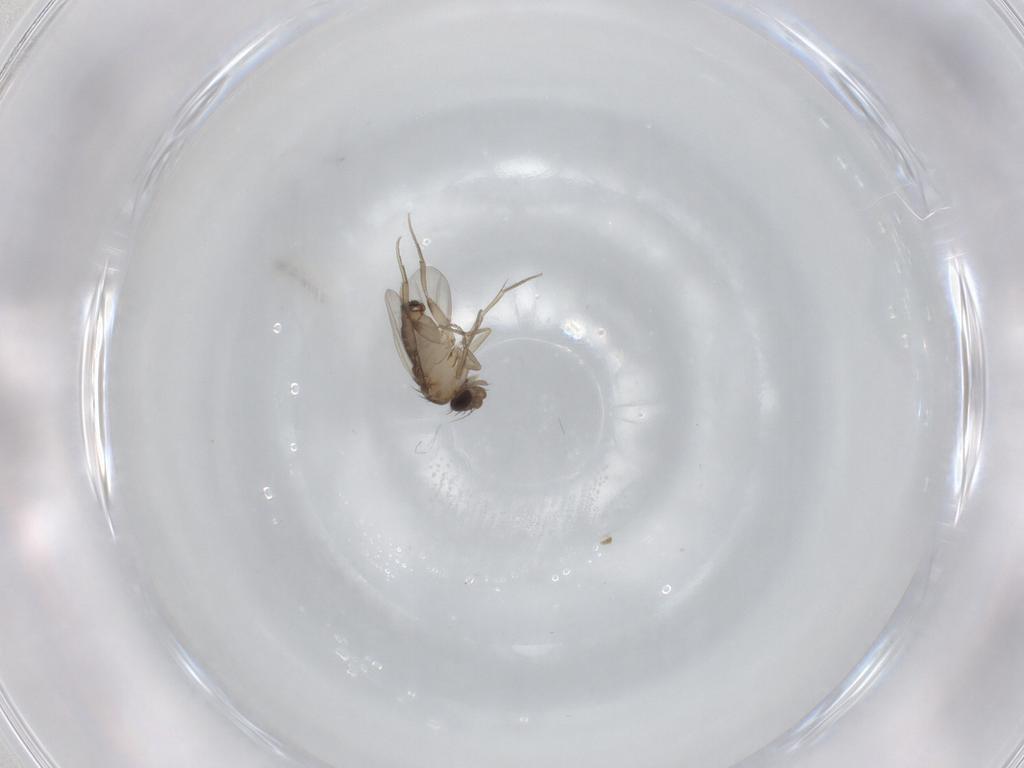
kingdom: Animalia
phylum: Arthropoda
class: Insecta
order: Diptera
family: Phoridae
